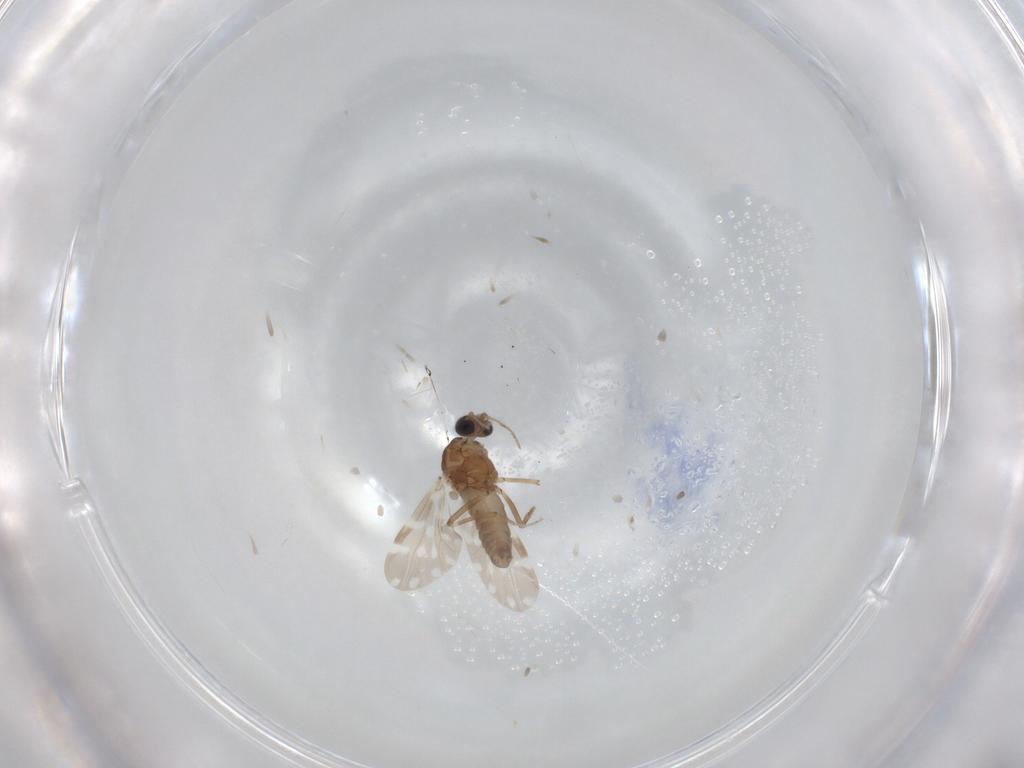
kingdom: Animalia
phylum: Arthropoda
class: Insecta
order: Diptera
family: Ceratopogonidae
